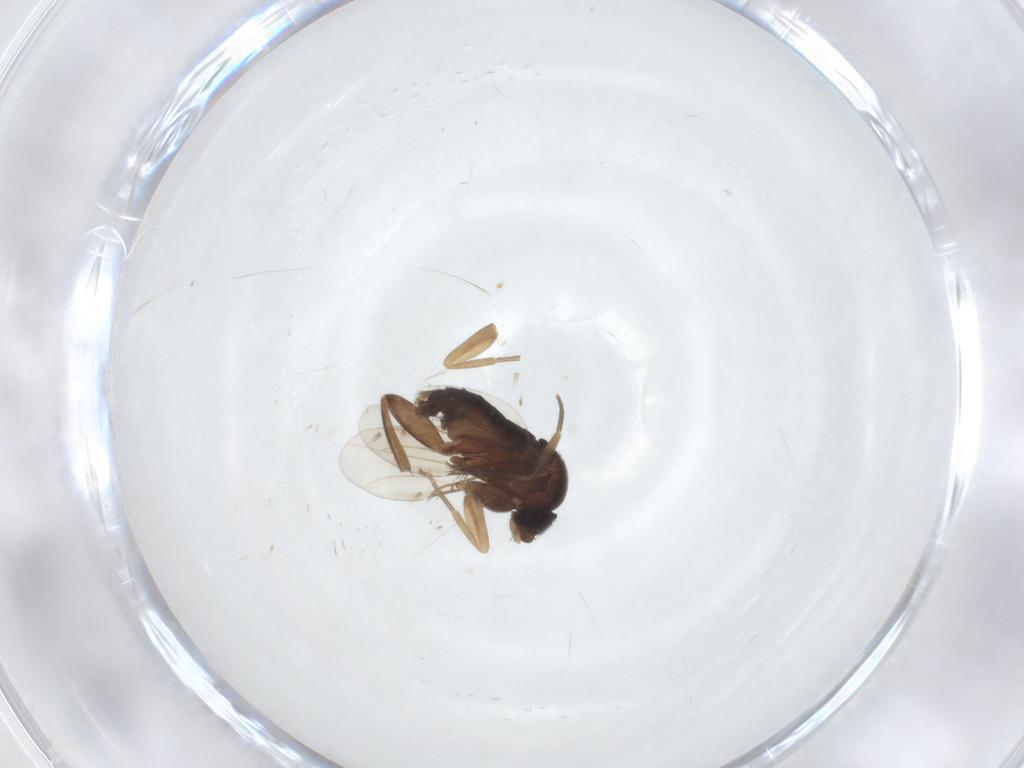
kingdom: Animalia
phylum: Arthropoda
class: Insecta
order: Diptera
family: Phoridae
